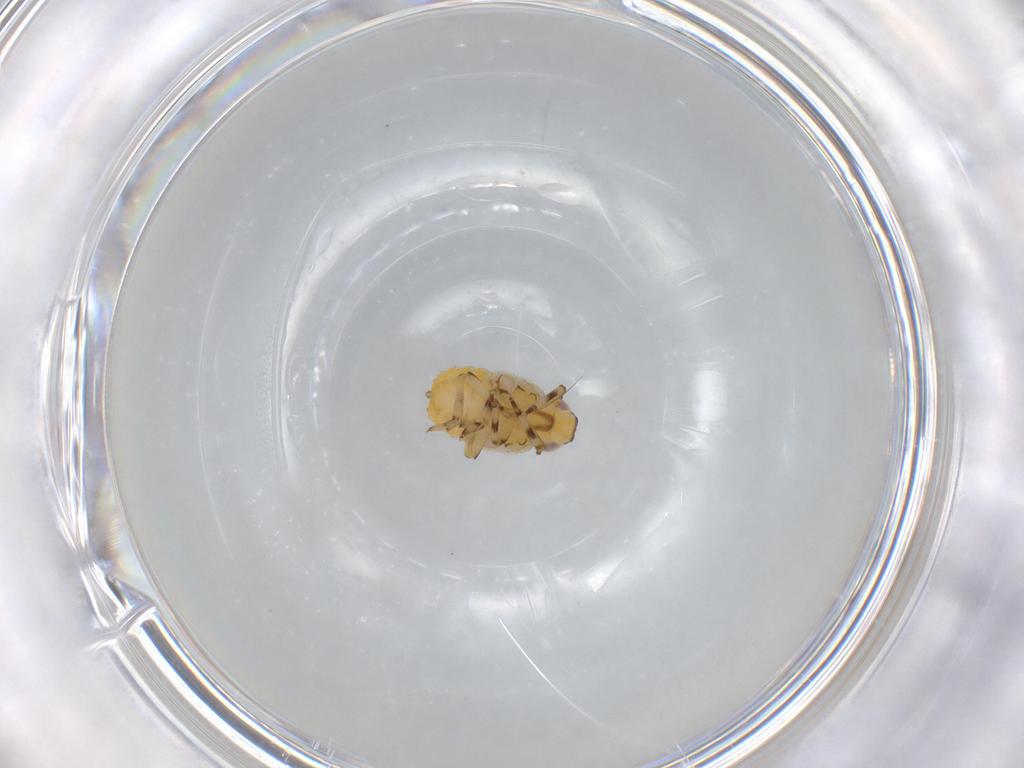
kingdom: Animalia
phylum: Arthropoda
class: Insecta
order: Hemiptera
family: Issidae
